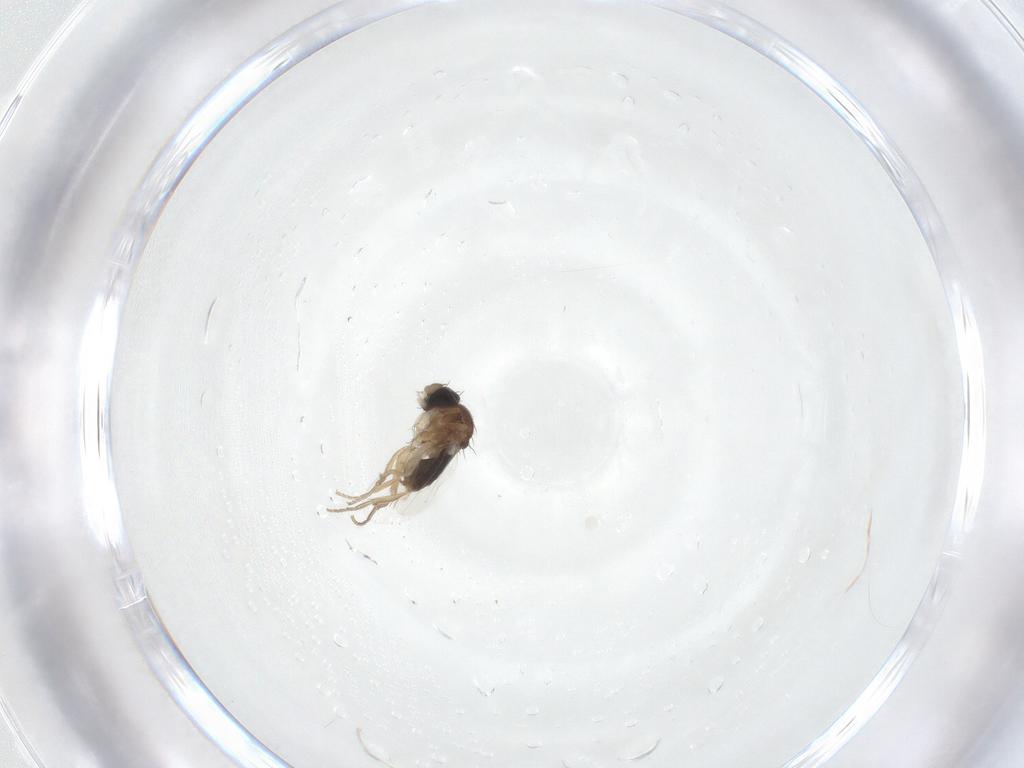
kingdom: Animalia
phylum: Arthropoda
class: Insecta
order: Diptera
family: Phoridae
